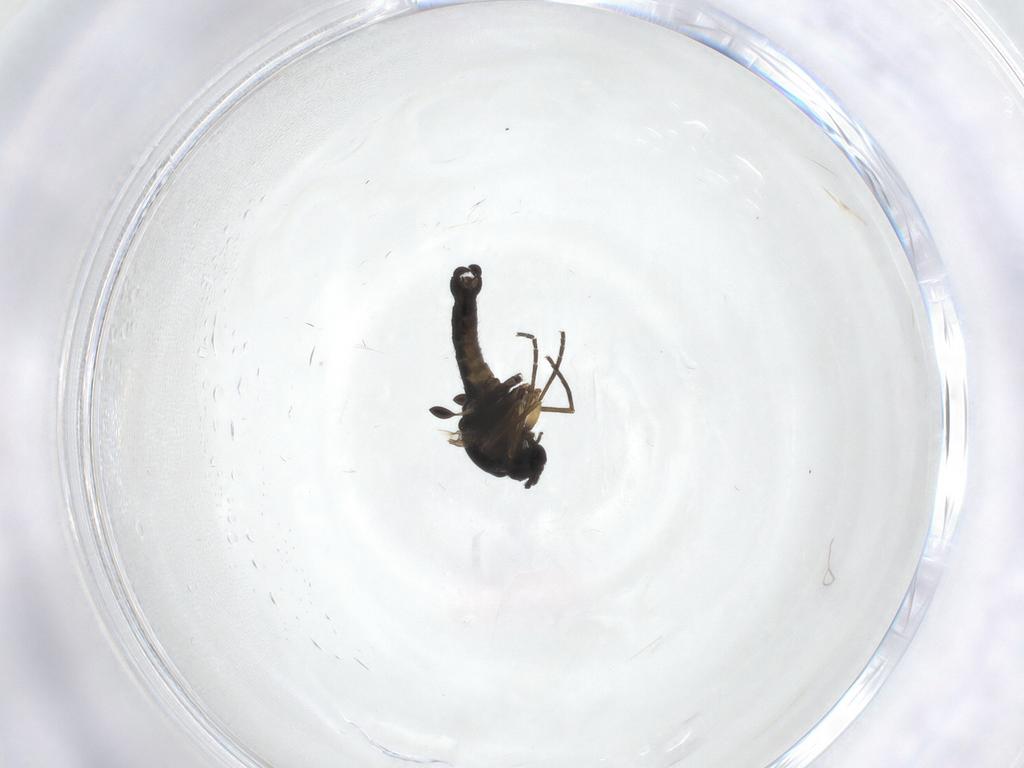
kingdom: Animalia
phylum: Arthropoda
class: Insecta
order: Diptera
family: Sciaridae
